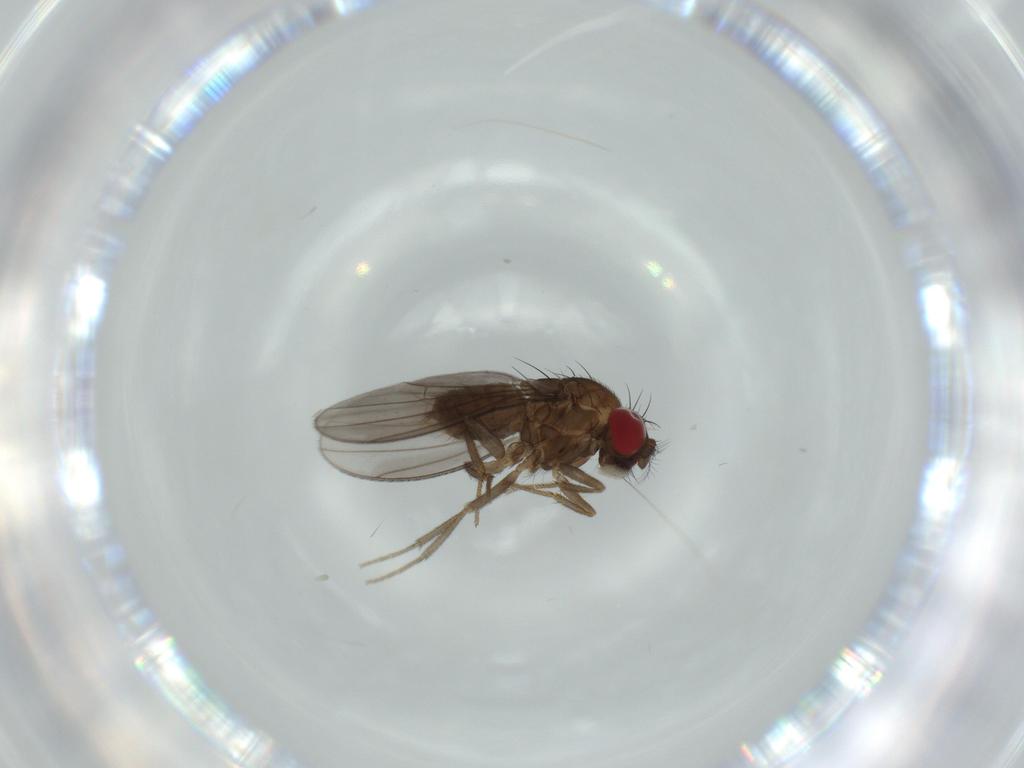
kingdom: Animalia
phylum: Arthropoda
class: Insecta
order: Diptera
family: Drosophilidae
